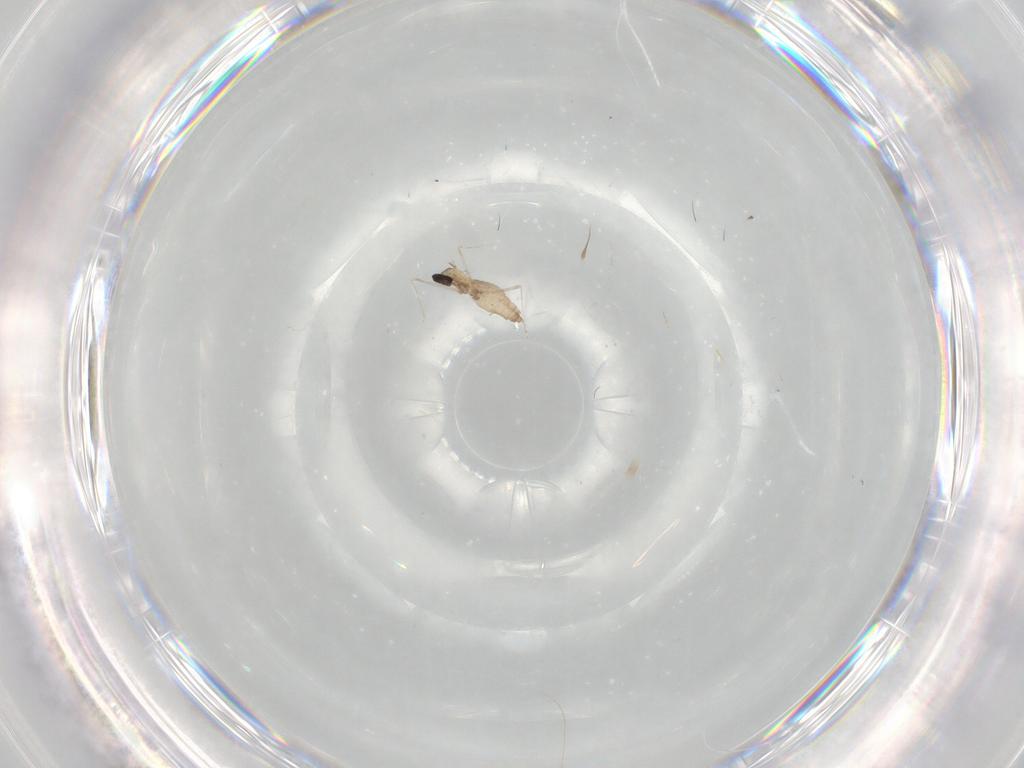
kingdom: Animalia
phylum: Arthropoda
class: Insecta
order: Diptera
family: Cecidomyiidae
